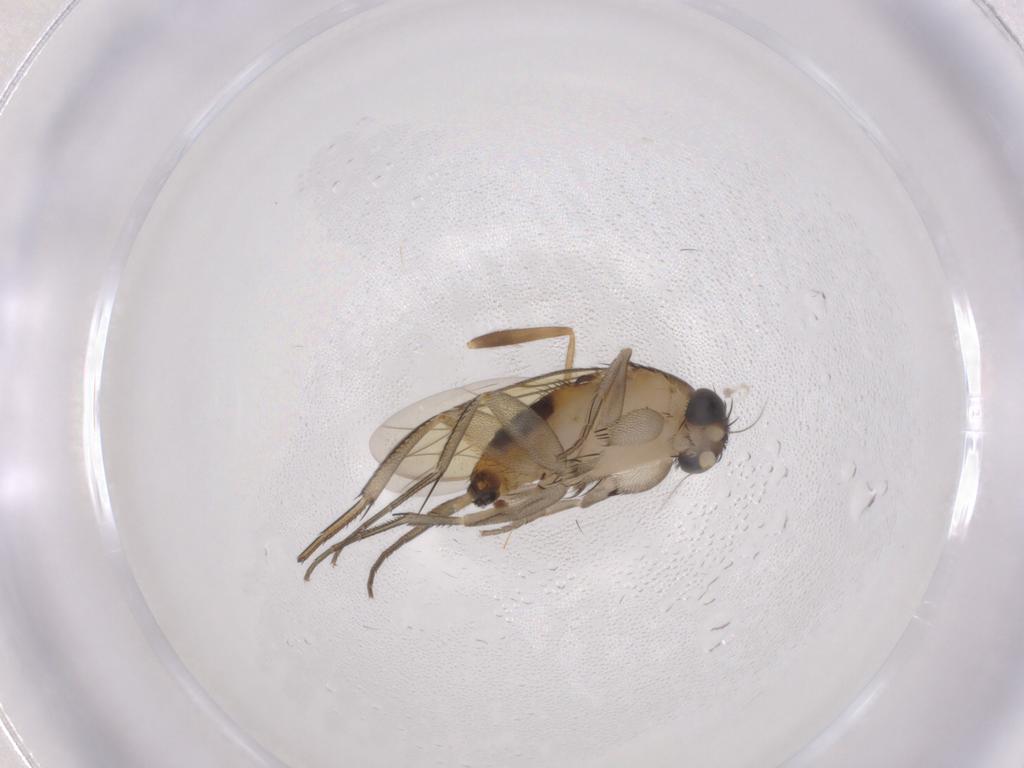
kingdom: Animalia
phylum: Arthropoda
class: Insecta
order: Diptera
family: Phoridae
